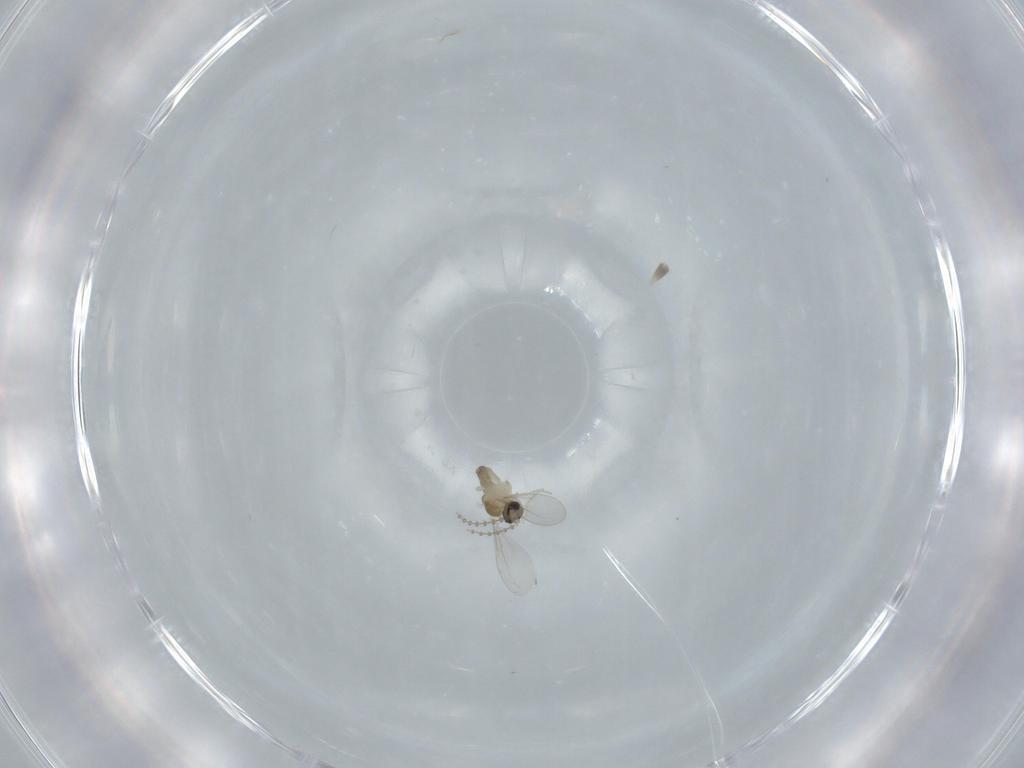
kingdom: Animalia
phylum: Arthropoda
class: Insecta
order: Diptera
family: Cecidomyiidae
